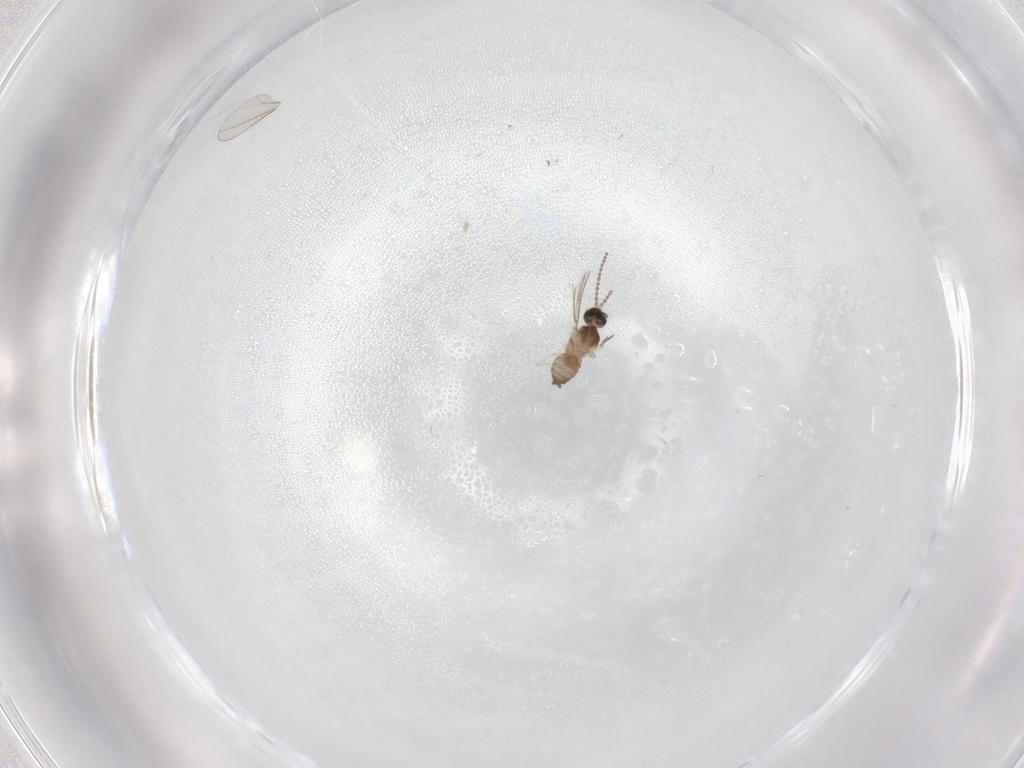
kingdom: Animalia
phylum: Arthropoda
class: Insecta
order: Diptera
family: Cecidomyiidae
